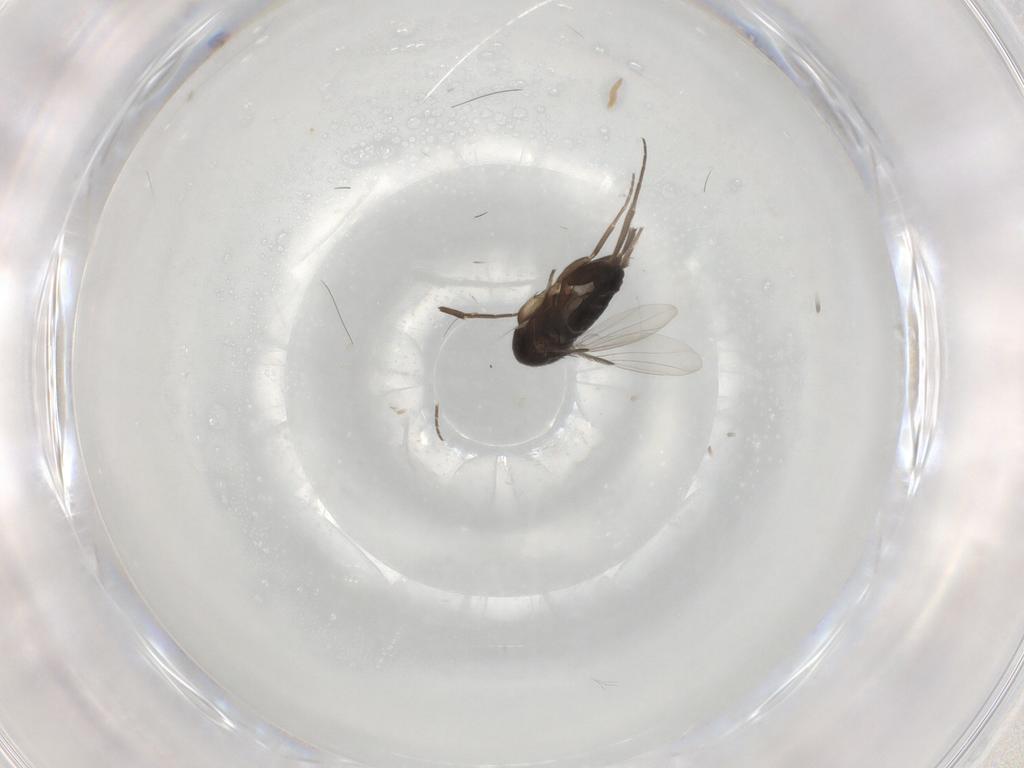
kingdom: Animalia
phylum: Arthropoda
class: Insecta
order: Diptera
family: Phoridae
